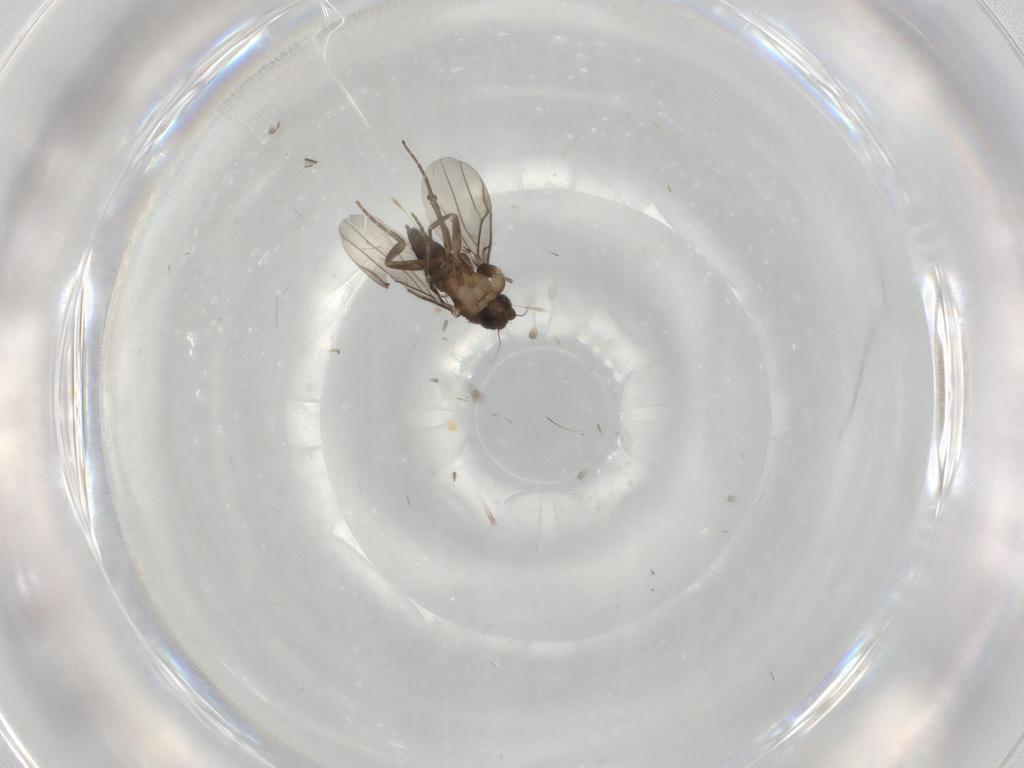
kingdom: Animalia
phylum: Arthropoda
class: Insecta
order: Diptera
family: Phoridae
